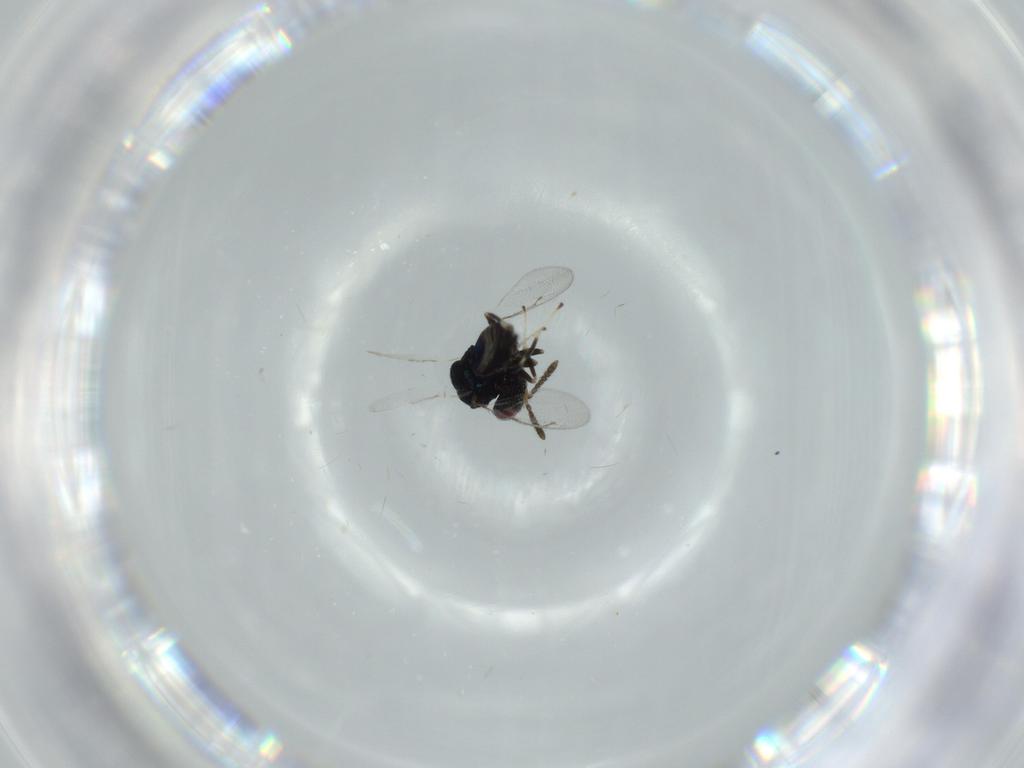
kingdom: Animalia
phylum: Arthropoda
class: Insecta
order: Hymenoptera
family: Pteromalidae
